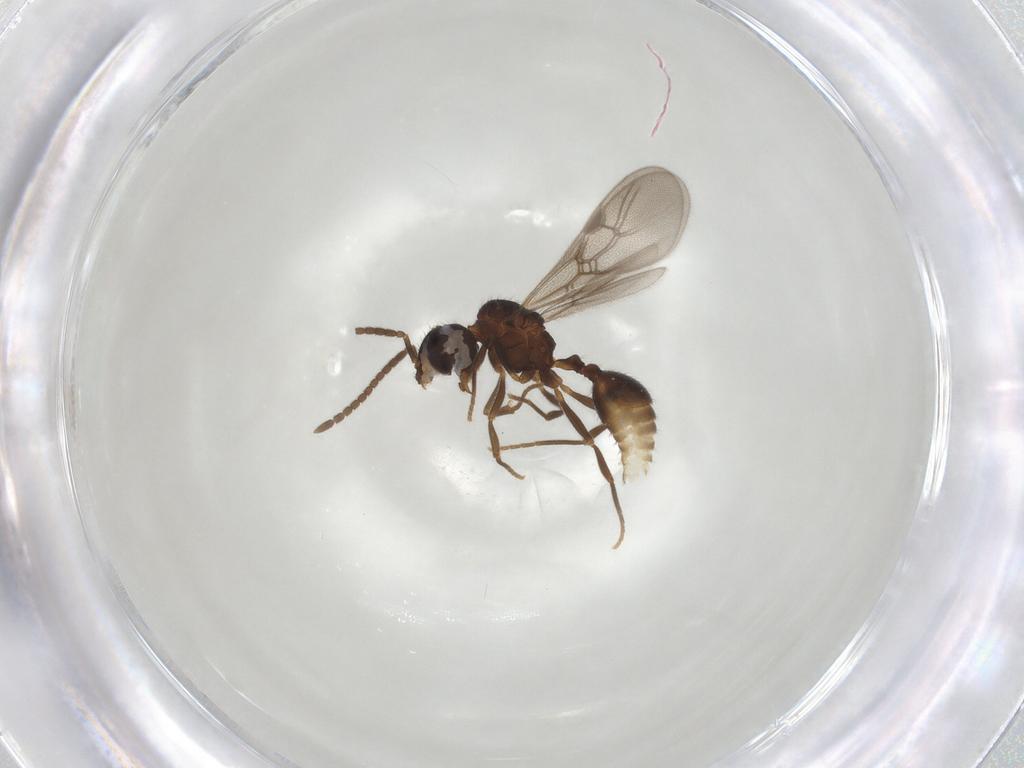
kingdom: Animalia
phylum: Arthropoda
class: Insecta
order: Hymenoptera
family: Formicidae
